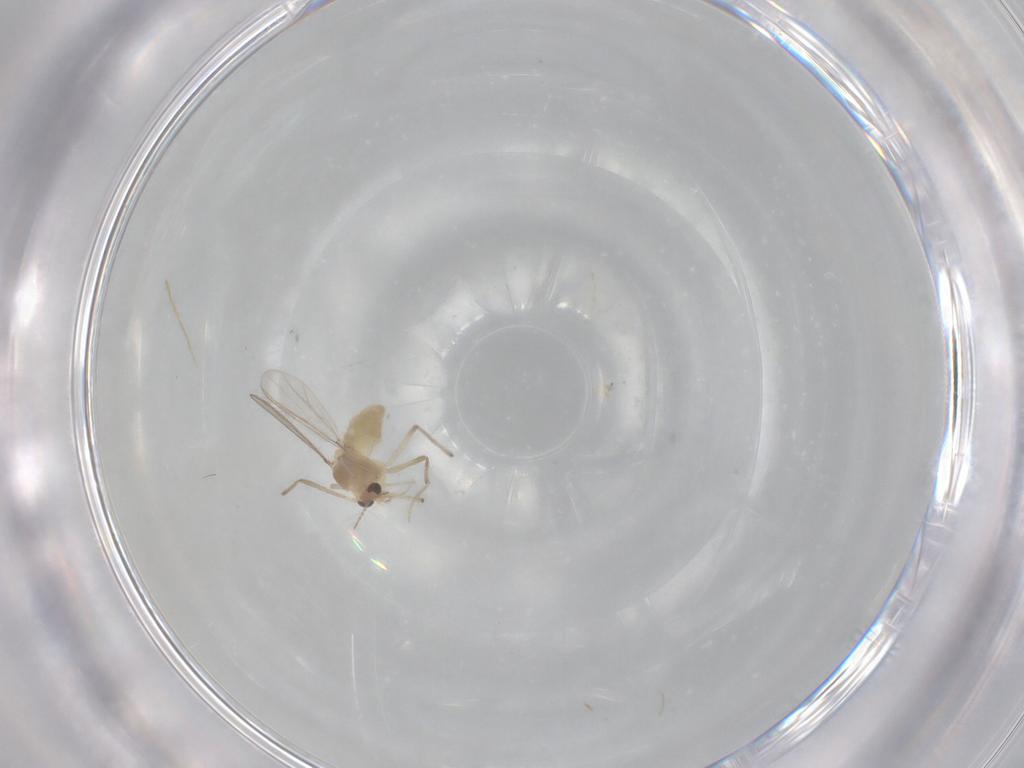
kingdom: Animalia
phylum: Arthropoda
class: Insecta
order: Diptera
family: Chironomidae
